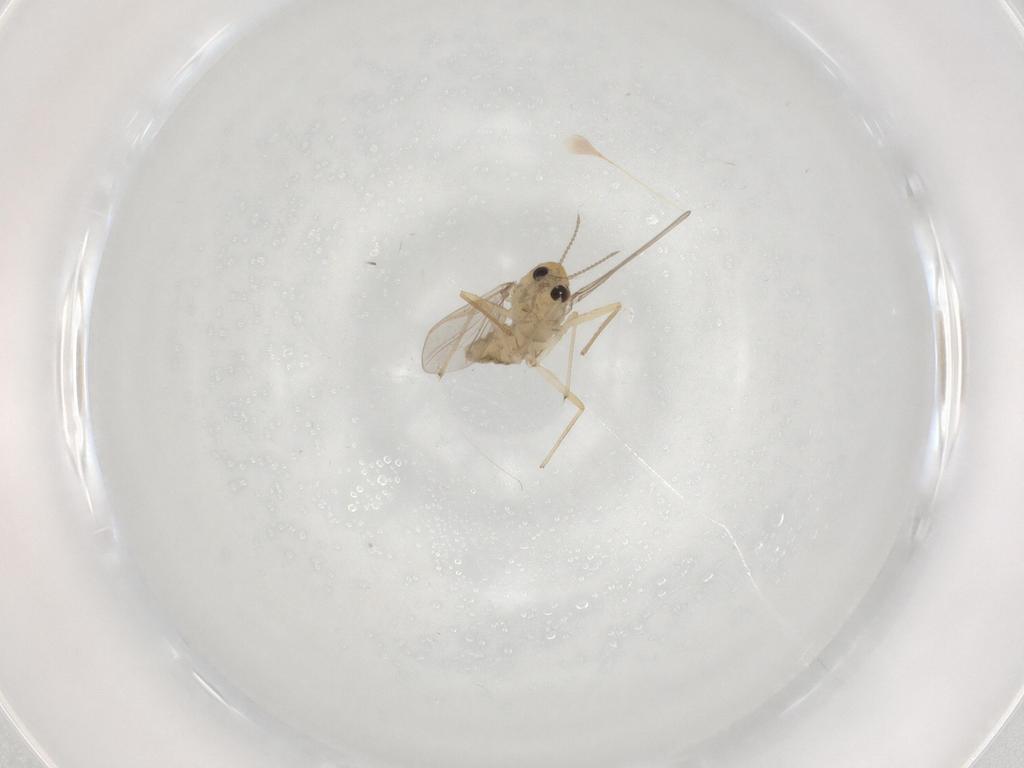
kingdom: Animalia
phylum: Arthropoda
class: Insecta
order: Diptera
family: Chironomidae
